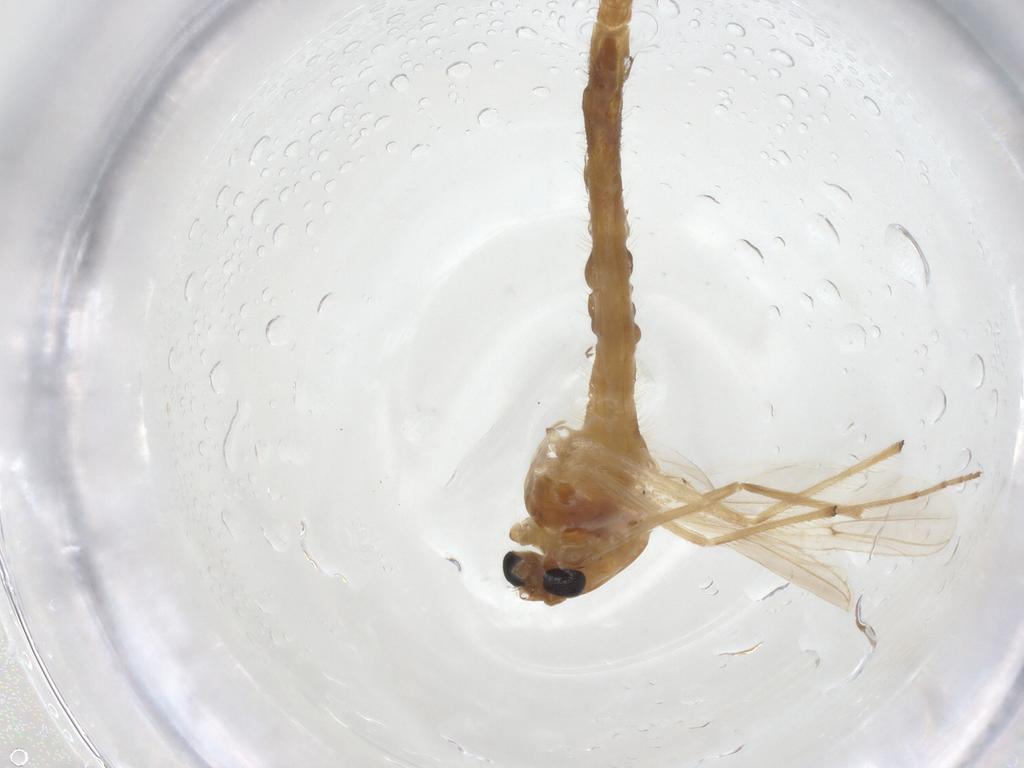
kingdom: Animalia
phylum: Arthropoda
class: Insecta
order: Diptera
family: Chironomidae
